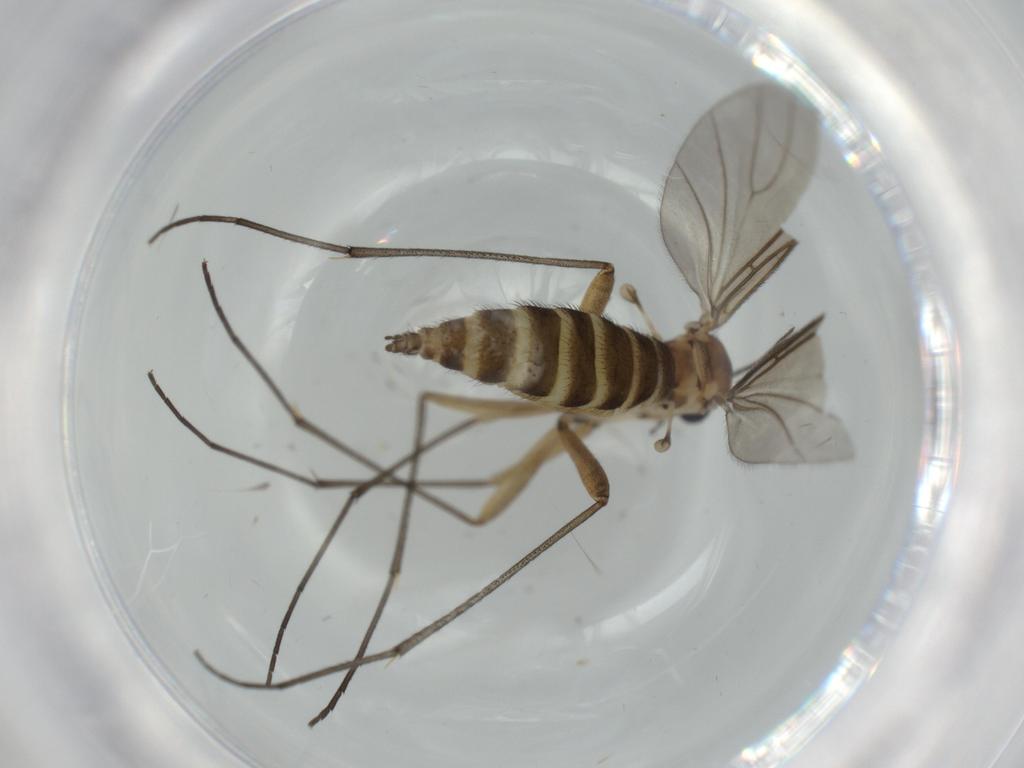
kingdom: Animalia
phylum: Arthropoda
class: Insecta
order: Diptera
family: Sciaridae
